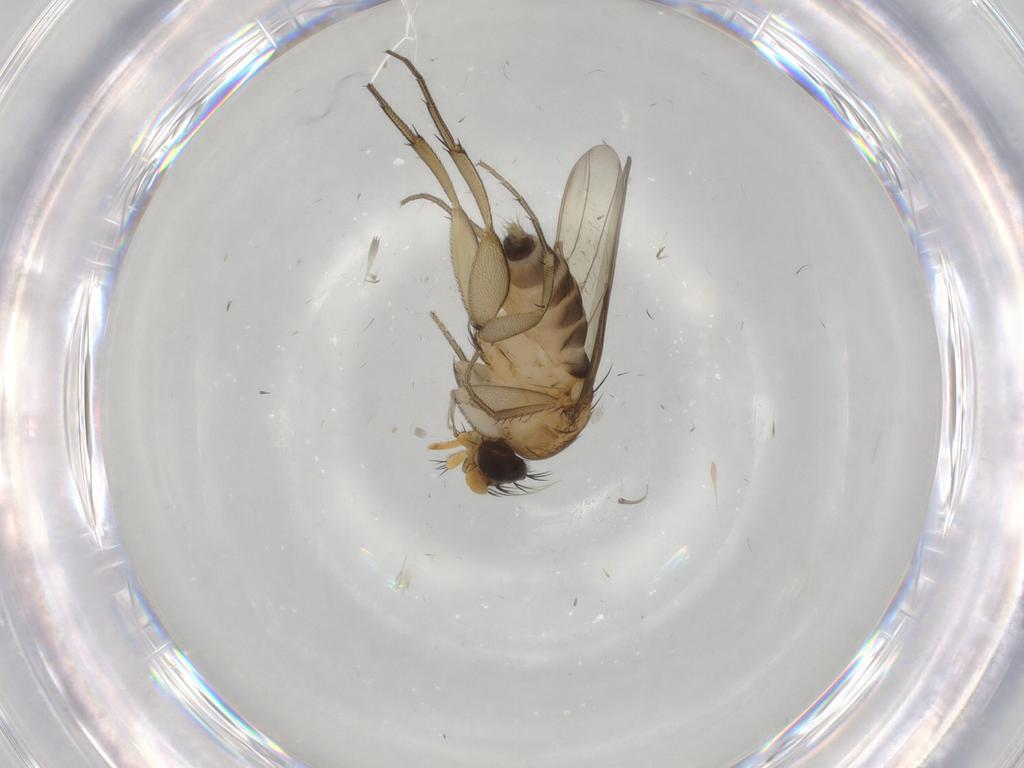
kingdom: Animalia
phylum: Arthropoda
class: Insecta
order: Diptera
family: Phoridae
